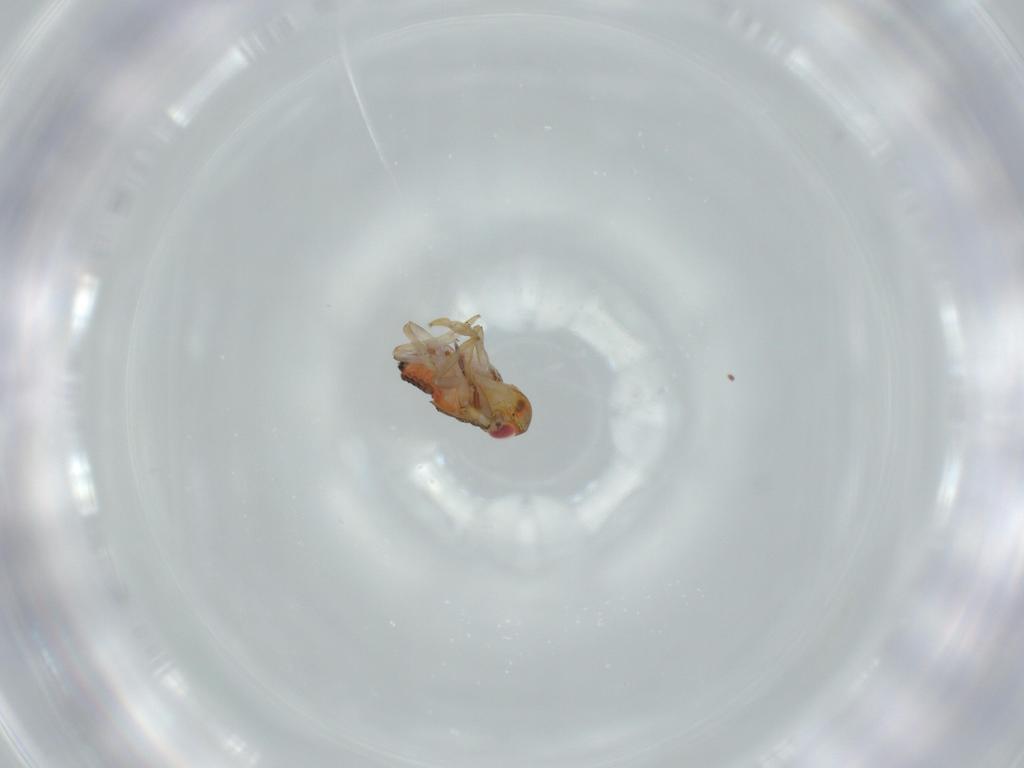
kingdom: Animalia
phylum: Arthropoda
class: Insecta
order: Hemiptera
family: Issidae
